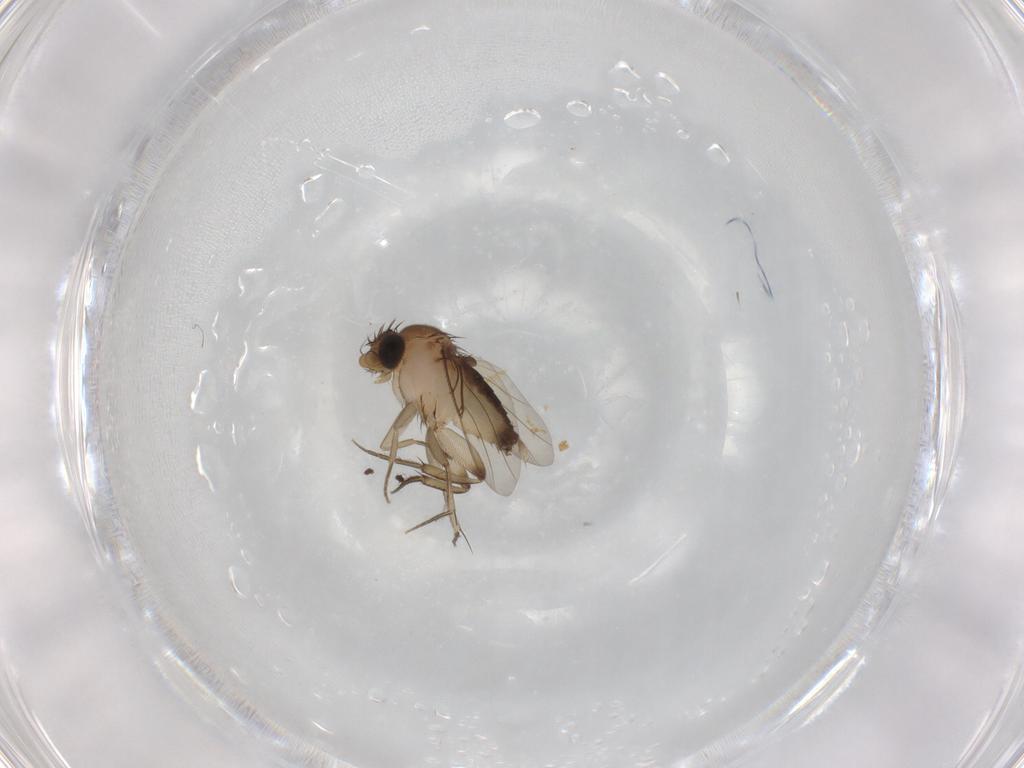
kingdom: Animalia
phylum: Arthropoda
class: Insecta
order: Diptera
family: Phoridae
